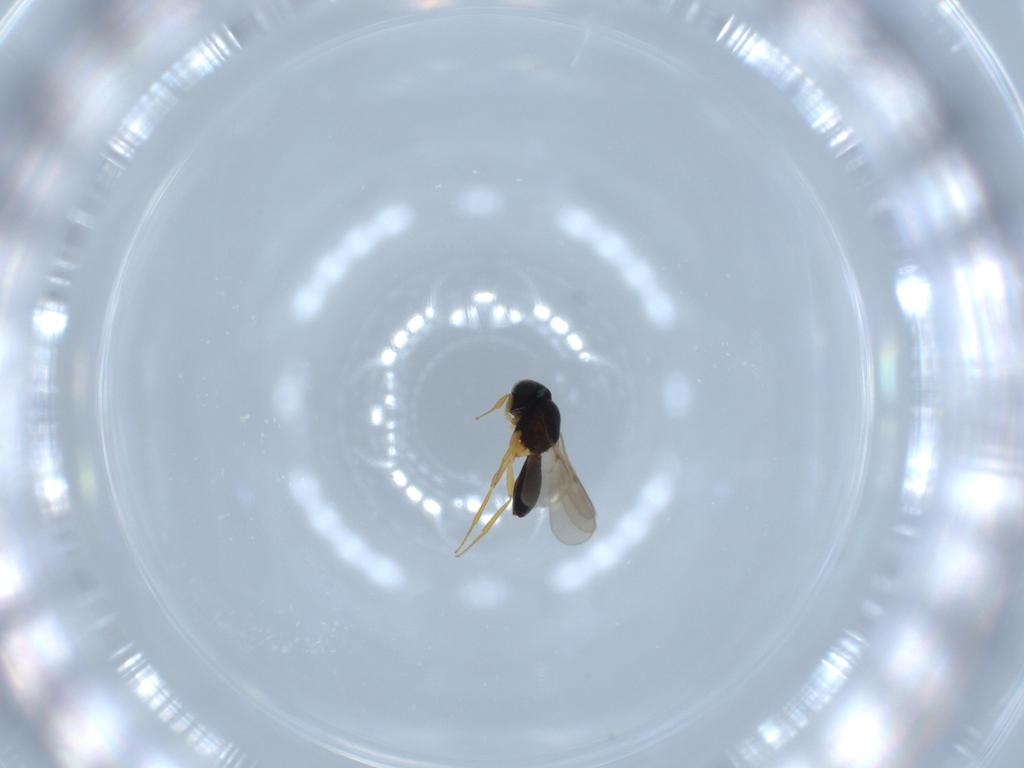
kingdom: Animalia
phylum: Arthropoda
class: Insecta
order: Hymenoptera
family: Scelionidae
